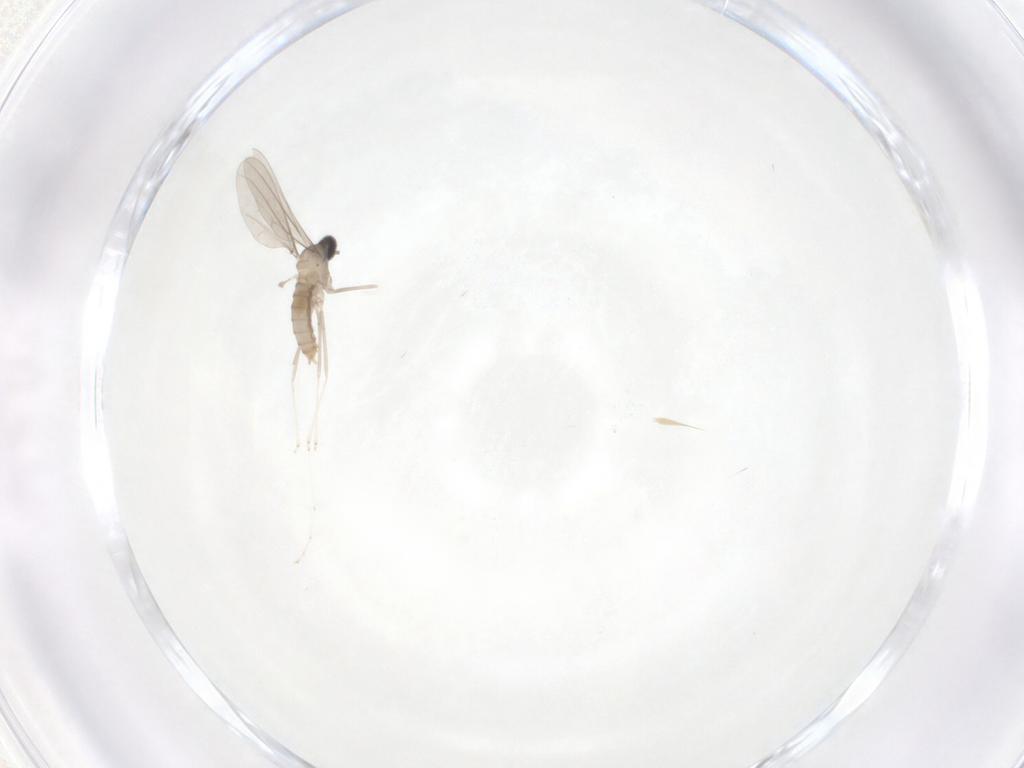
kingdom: Animalia
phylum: Arthropoda
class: Insecta
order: Diptera
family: Cecidomyiidae
